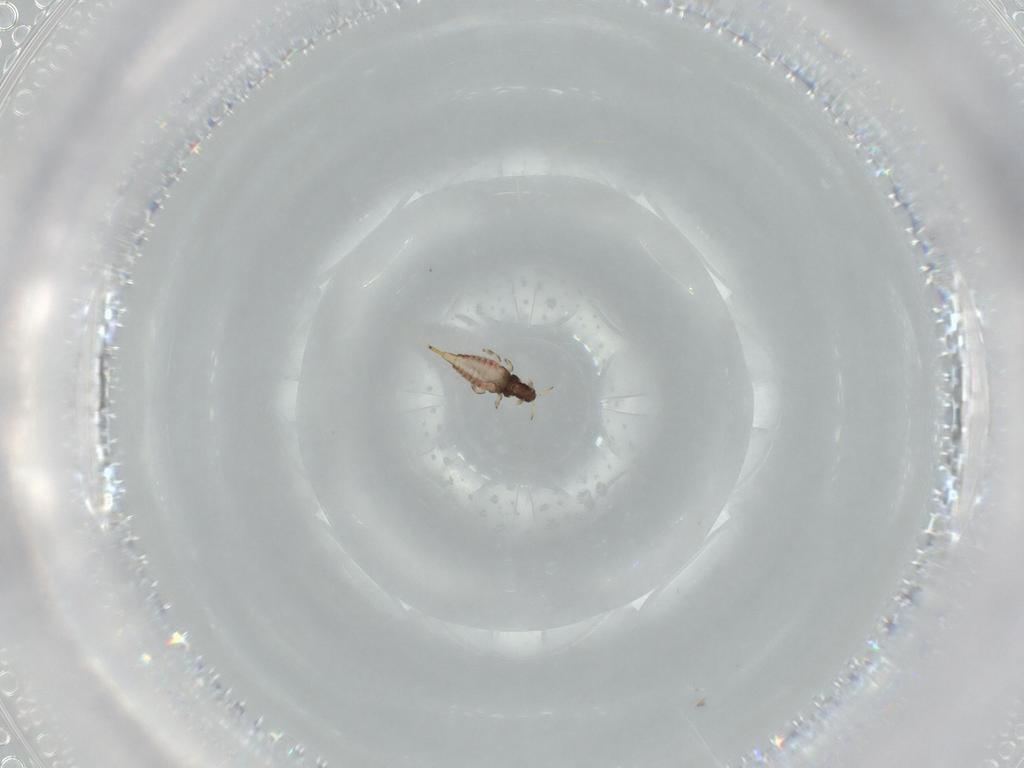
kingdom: Animalia
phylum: Arthropoda
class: Insecta
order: Thysanoptera
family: Phlaeothripidae
